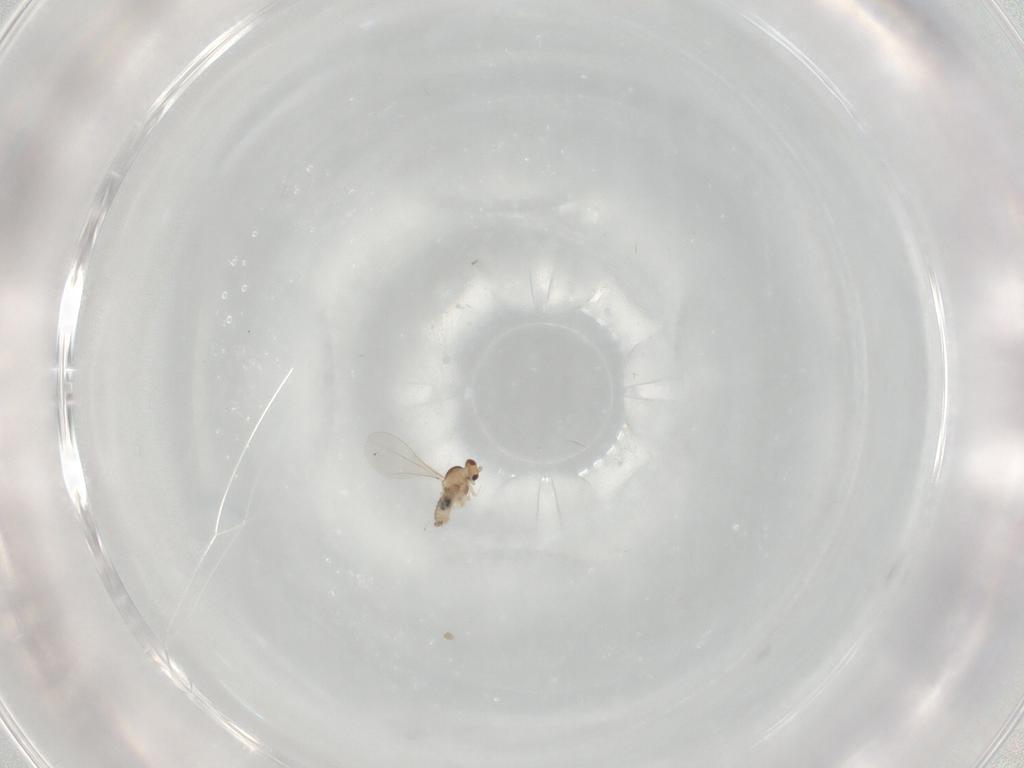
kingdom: Animalia
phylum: Arthropoda
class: Insecta
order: Diptera
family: Cecidomyiidae
